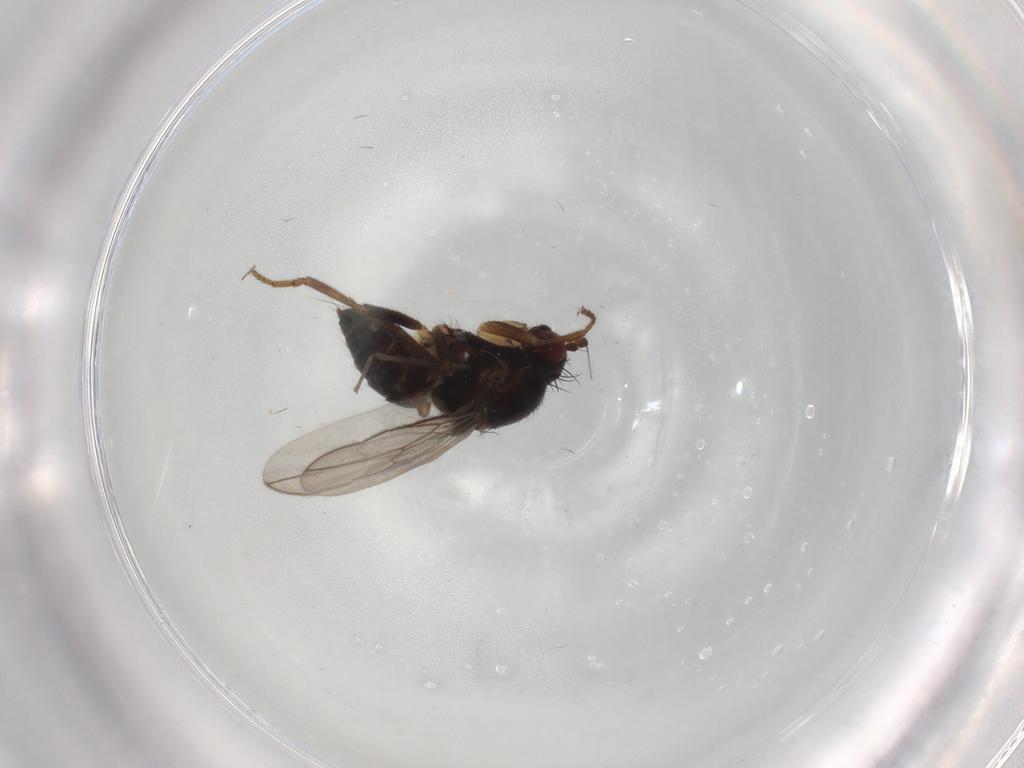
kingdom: Animalia
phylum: Arthropoda
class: Insecta
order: Diptera
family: Sphaeroceridae
